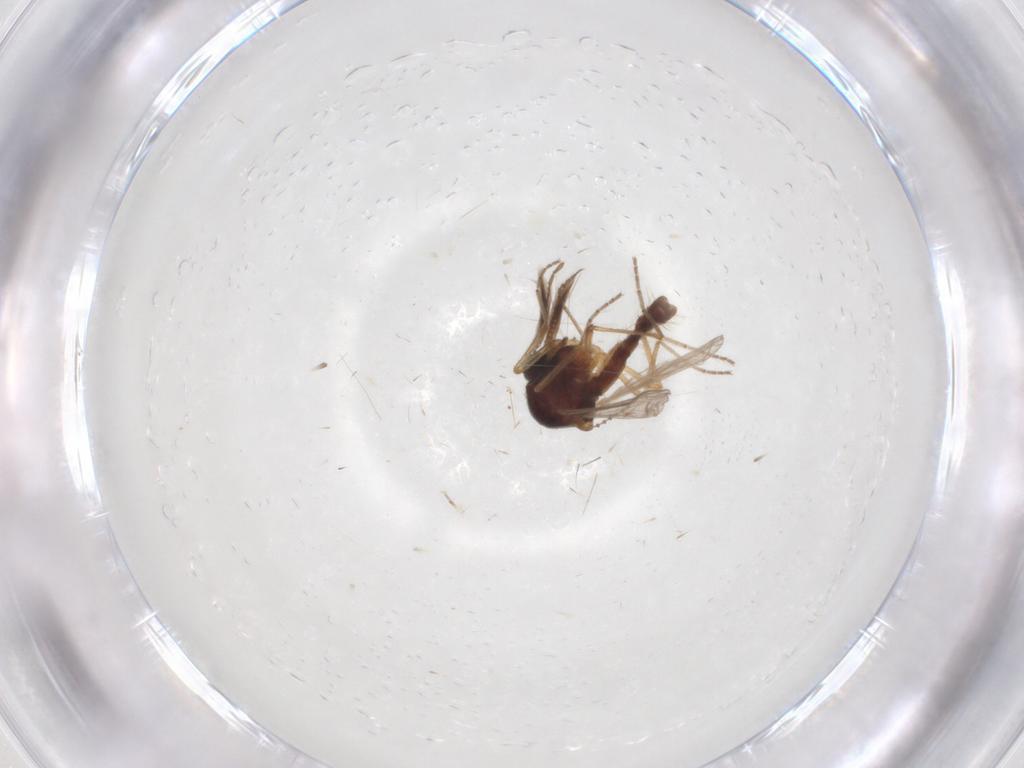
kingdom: Animalia
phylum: Arthropoda
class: Insecta
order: Diptera
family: Ceratopogonidae
